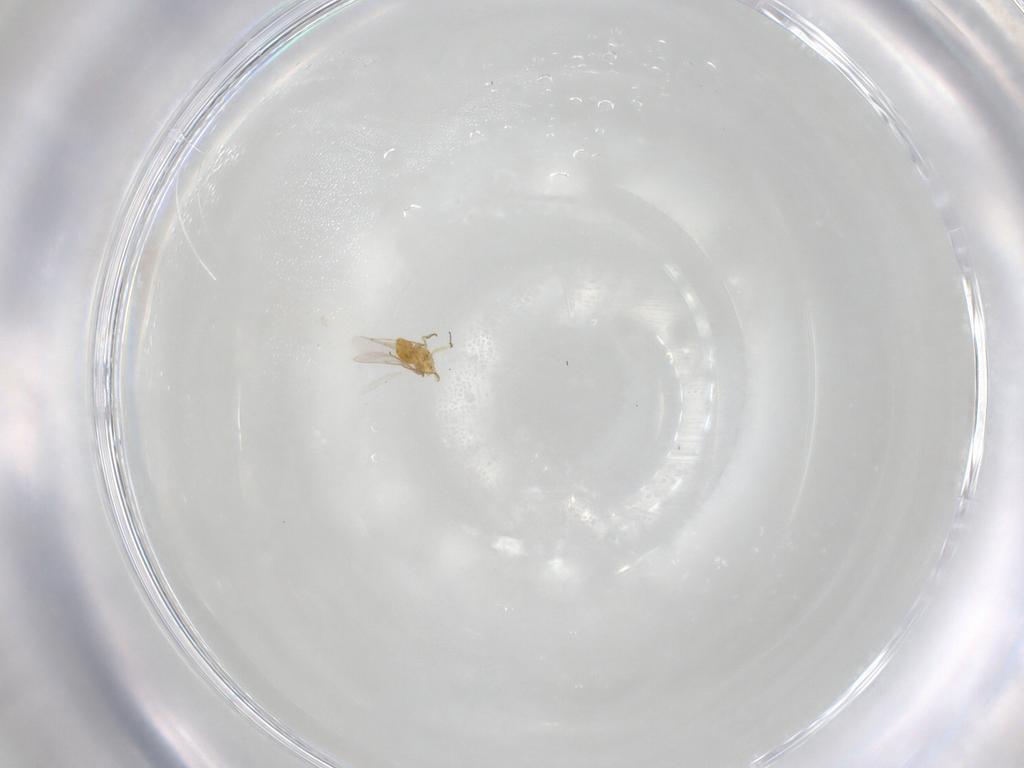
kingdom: Animalia
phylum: Arthropoda
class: Insecta
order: Hymenoptera
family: Aphelinidae
